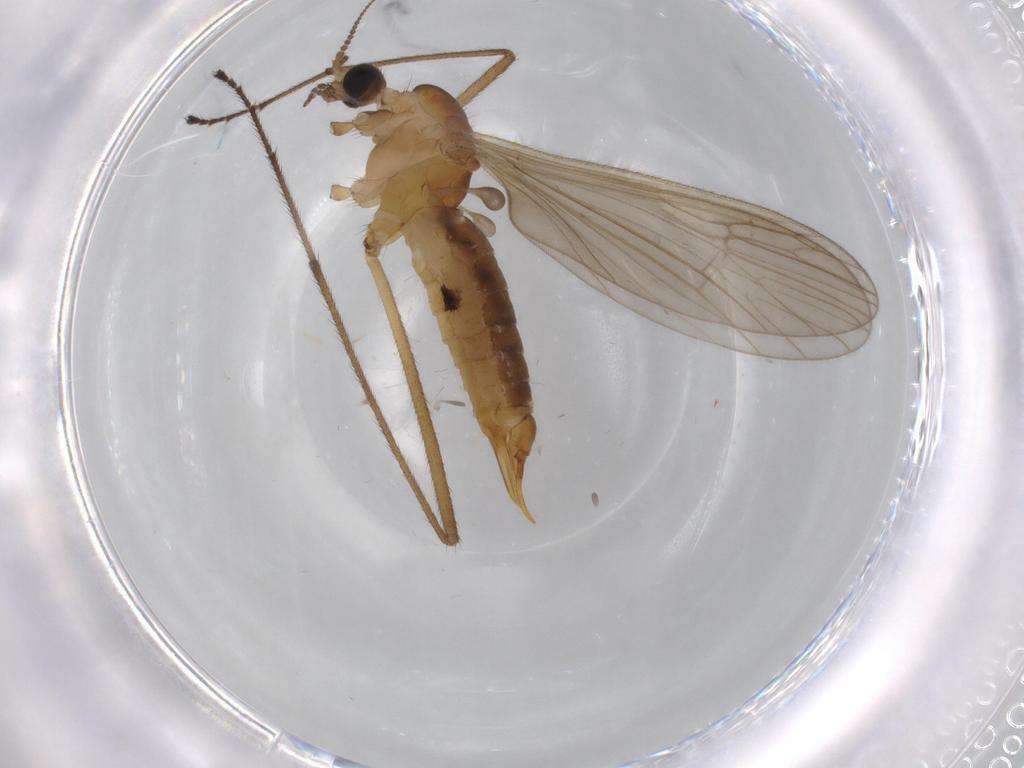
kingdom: Animalia
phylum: Arthropoda
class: Insecta
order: Diptera
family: Limoniidae
